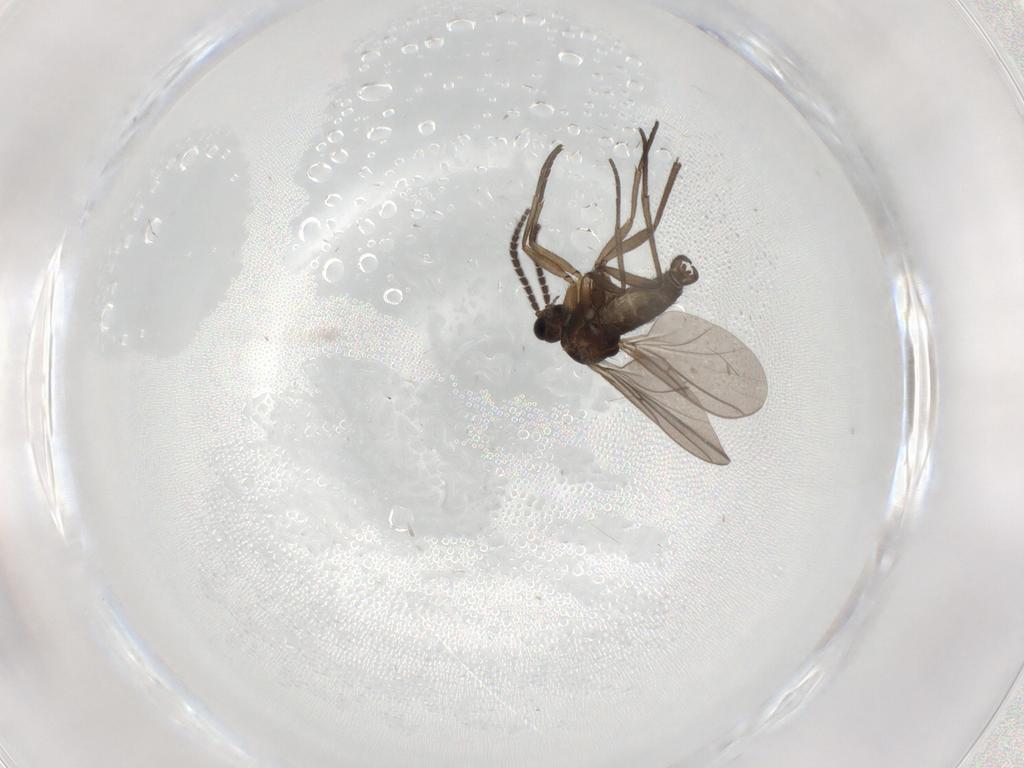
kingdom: Animalia
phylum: Arthropoda
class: Insecta
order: Diptera
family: Sciaridae
